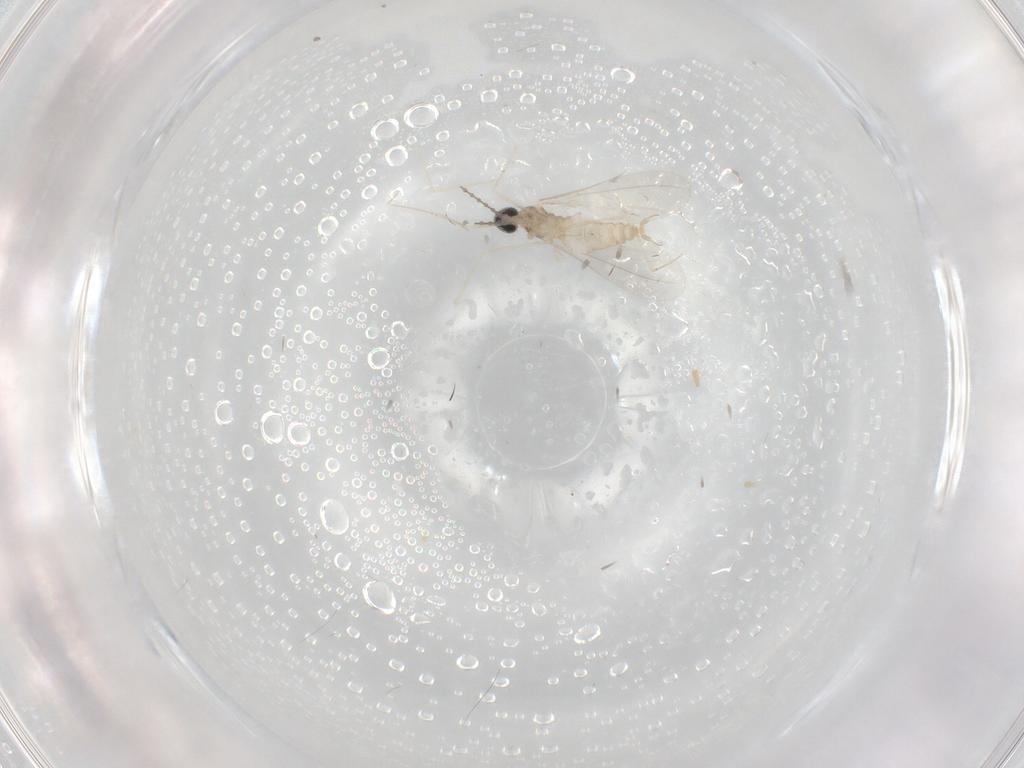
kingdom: Animalia
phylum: Arthropoda
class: Insecta
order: Diptera
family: Cecidomyiidae
